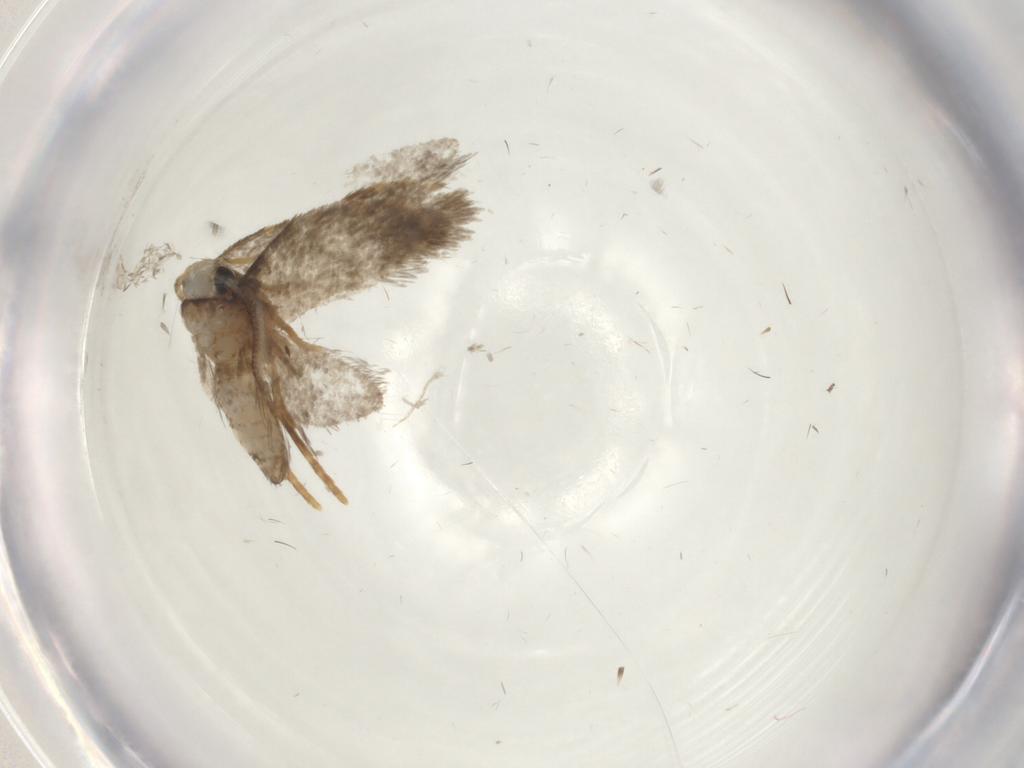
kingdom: Animalia
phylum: Arthropoda
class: Insecta
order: Lepidoptera
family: Psychidae
